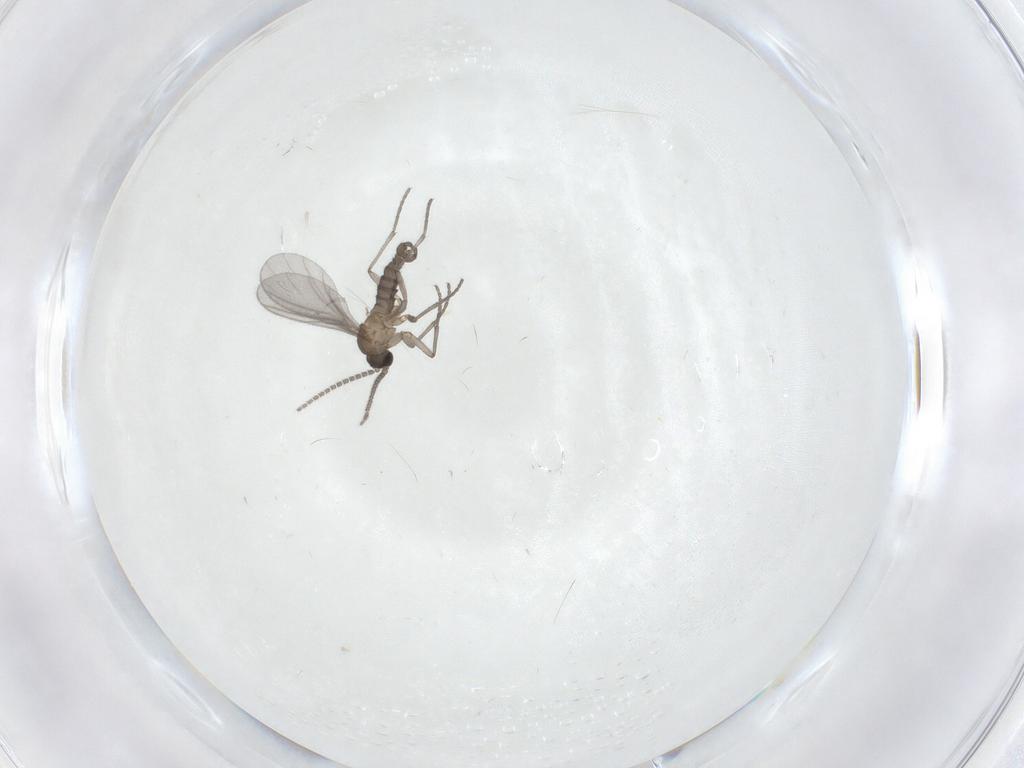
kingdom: Animalia
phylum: Arthropoda
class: Insecta
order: Diptera
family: Sciaridae
